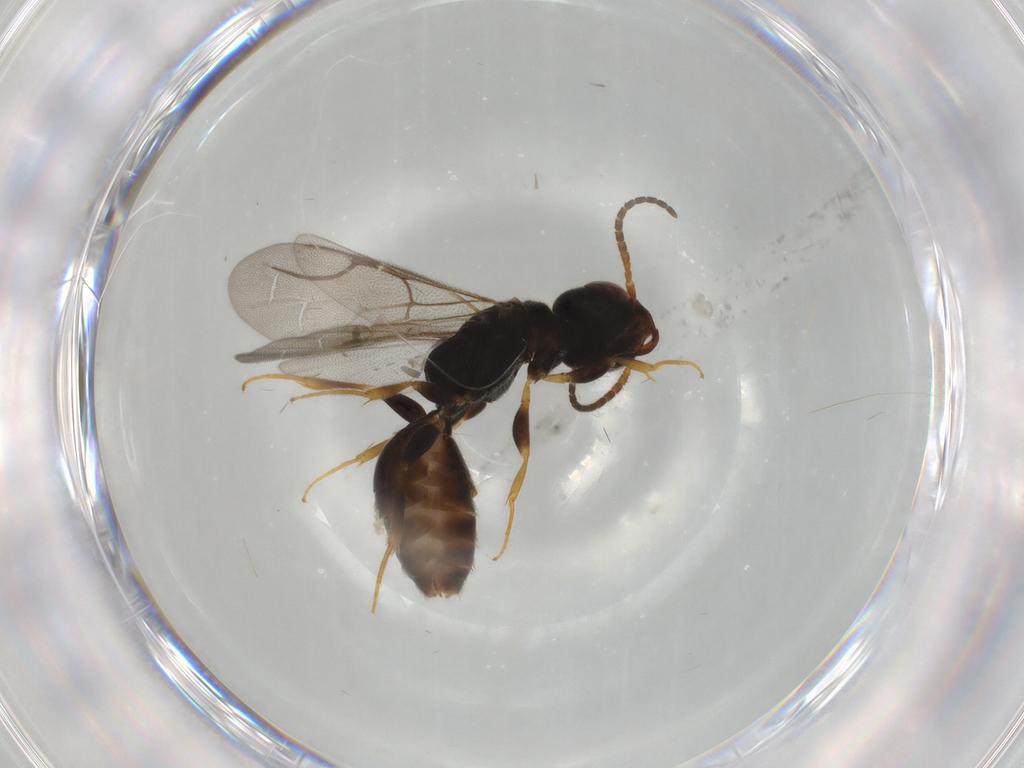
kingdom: Animalia
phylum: Arthropoda
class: Insecta
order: Hymenoptera
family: Bethylidae
